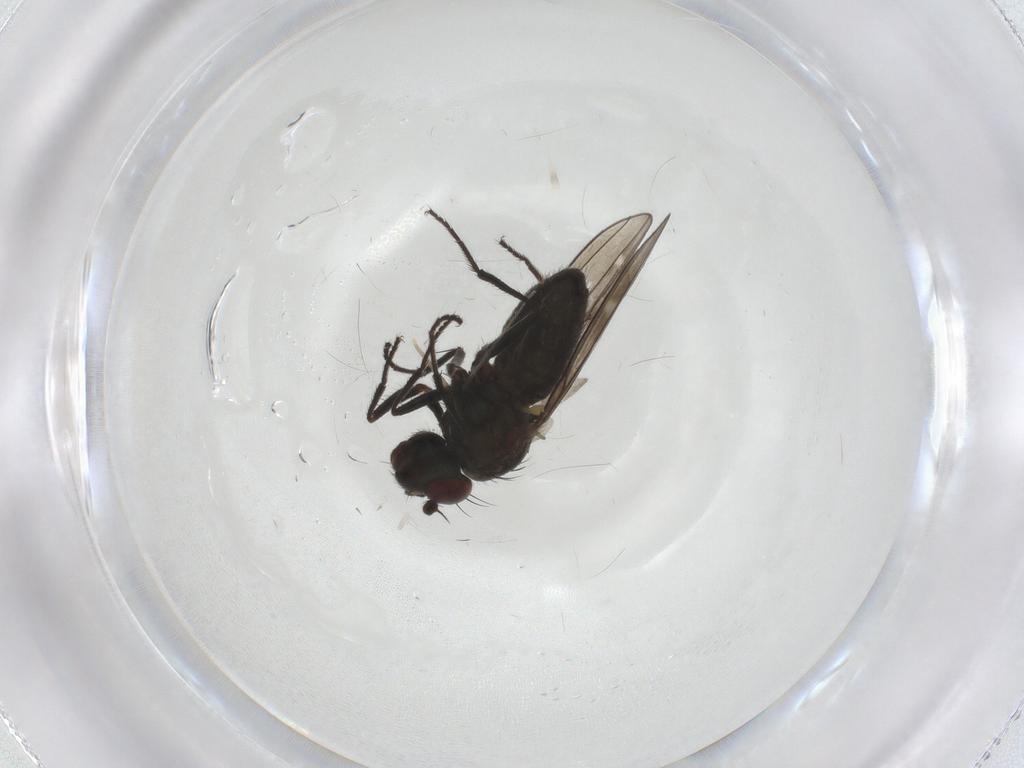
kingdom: Animalia
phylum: Arthropoda
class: Insecta
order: Diptera
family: Ephydridae
